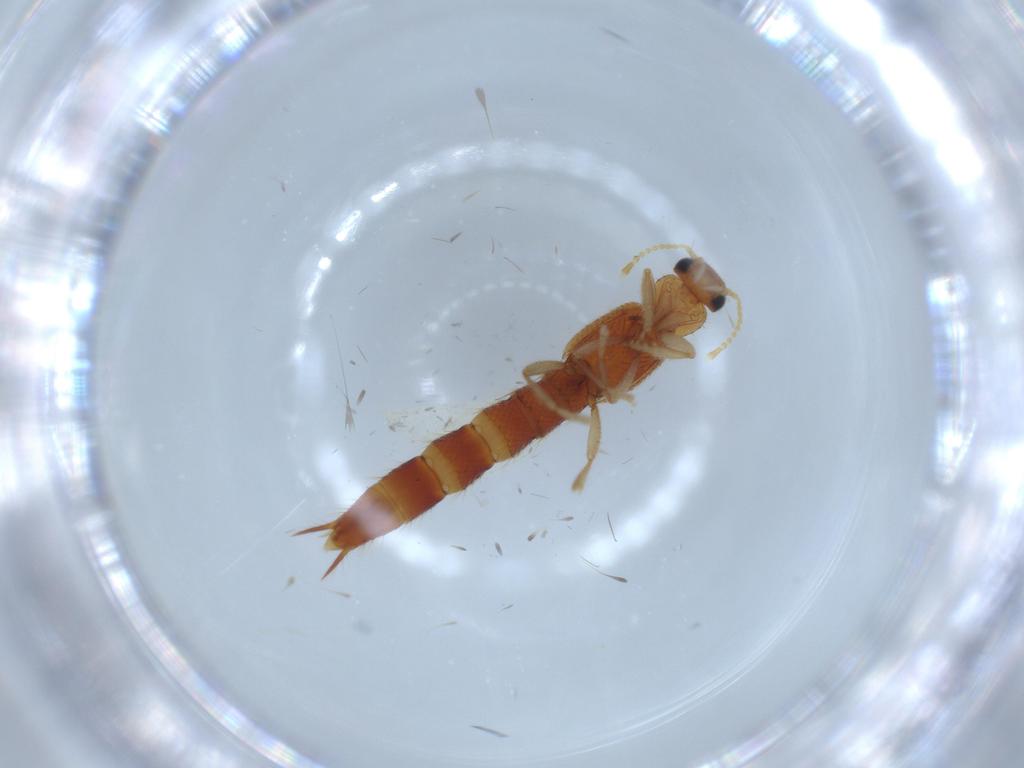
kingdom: Animalia
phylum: Arthropoda
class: Insecta
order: Coleoptera
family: Staphylinidae
